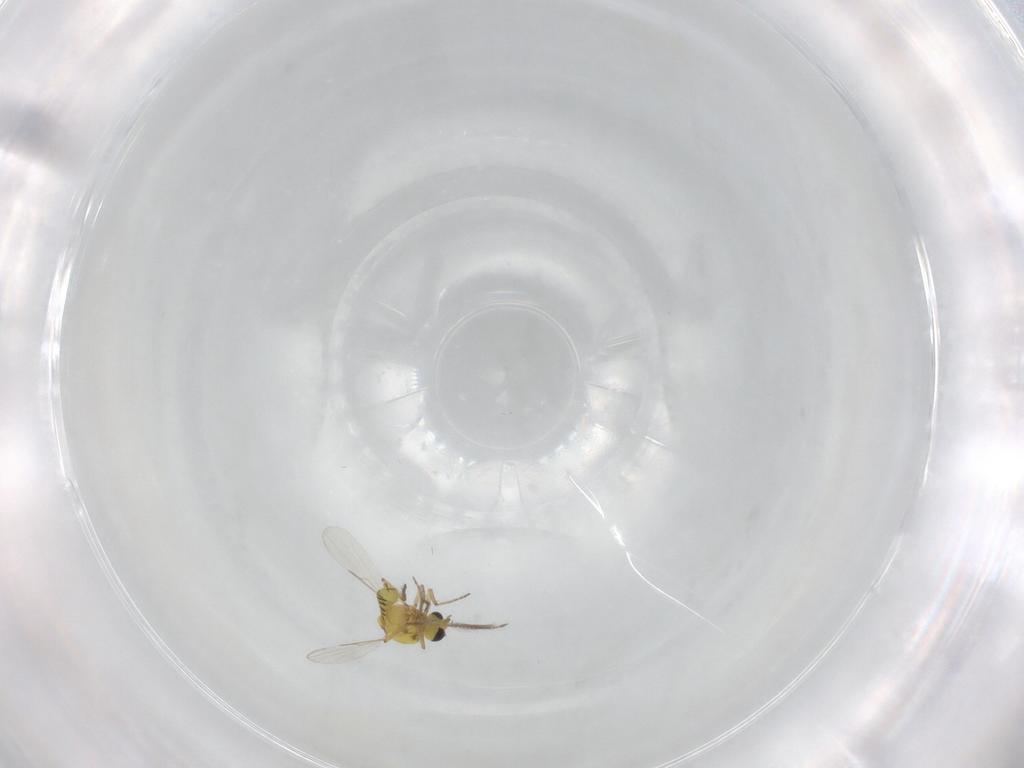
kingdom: Animalia
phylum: Arthropoda
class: Insecta
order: Diptera
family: Ceratopogonidae
